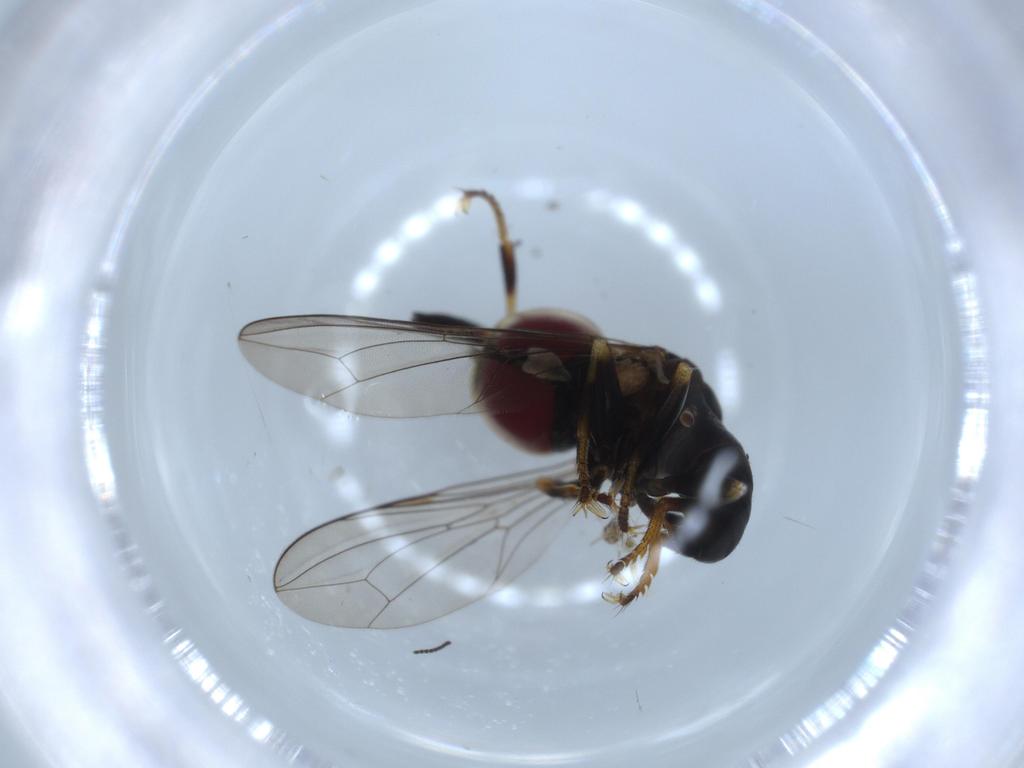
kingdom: Animalia
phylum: Arthropoda
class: Insecta
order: Diptera
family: Pipunculidae
